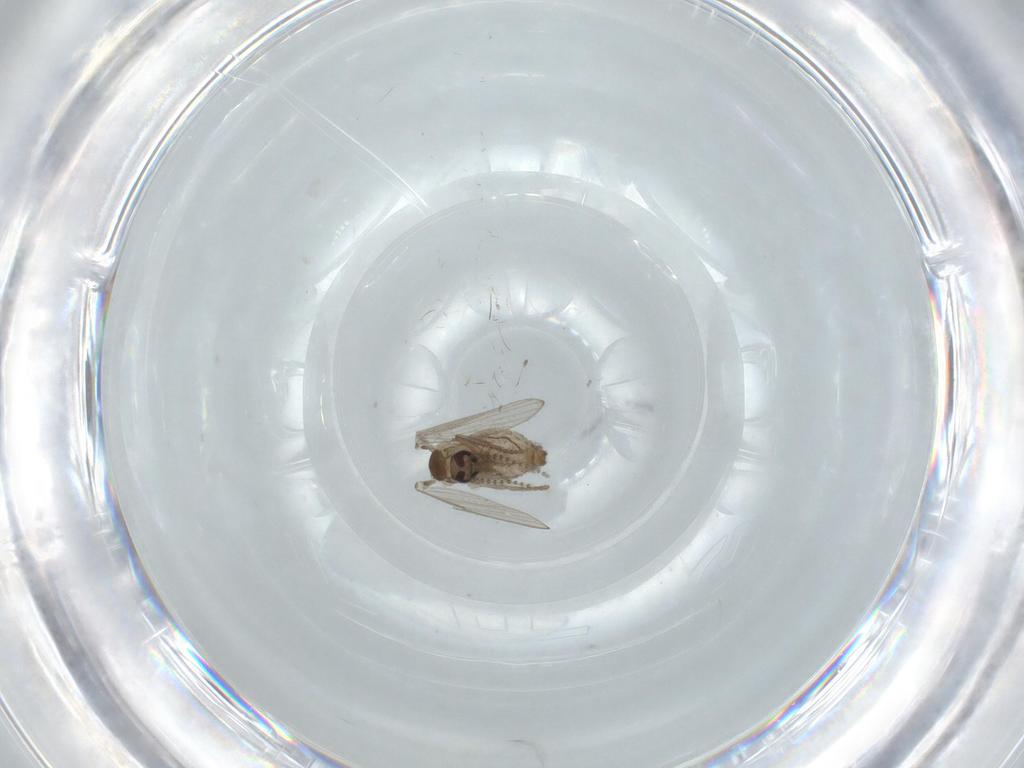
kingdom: Animalia
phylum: Arthropoda
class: Insecta
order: Diptera
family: Psychodidae
